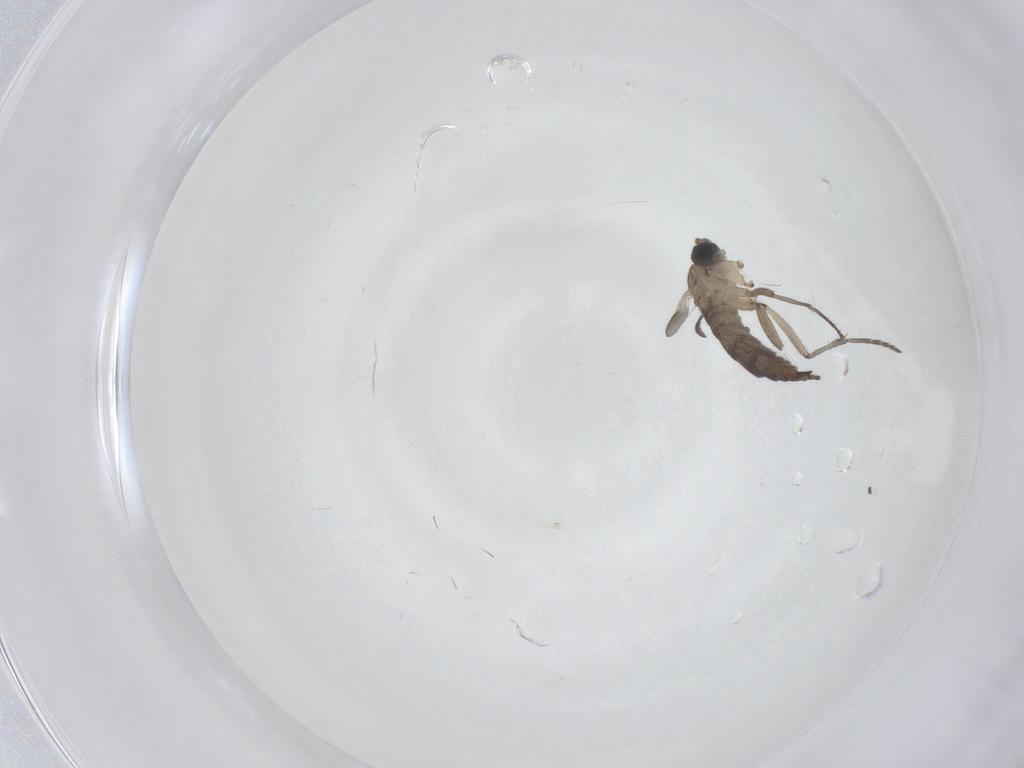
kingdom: Animalia
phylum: Arthropoda
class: Insecta
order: Diptera
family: Sciaridae
